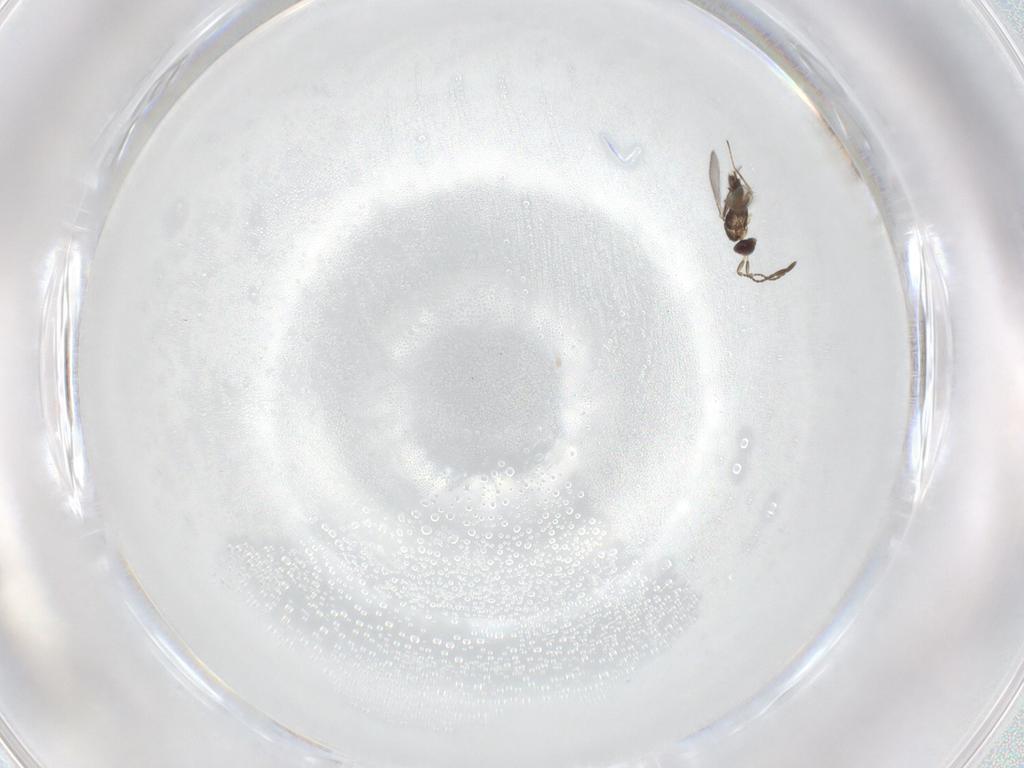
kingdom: Animalia
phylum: Arthropoda
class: Insecta
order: Hymenoptera
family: Mymaridae
